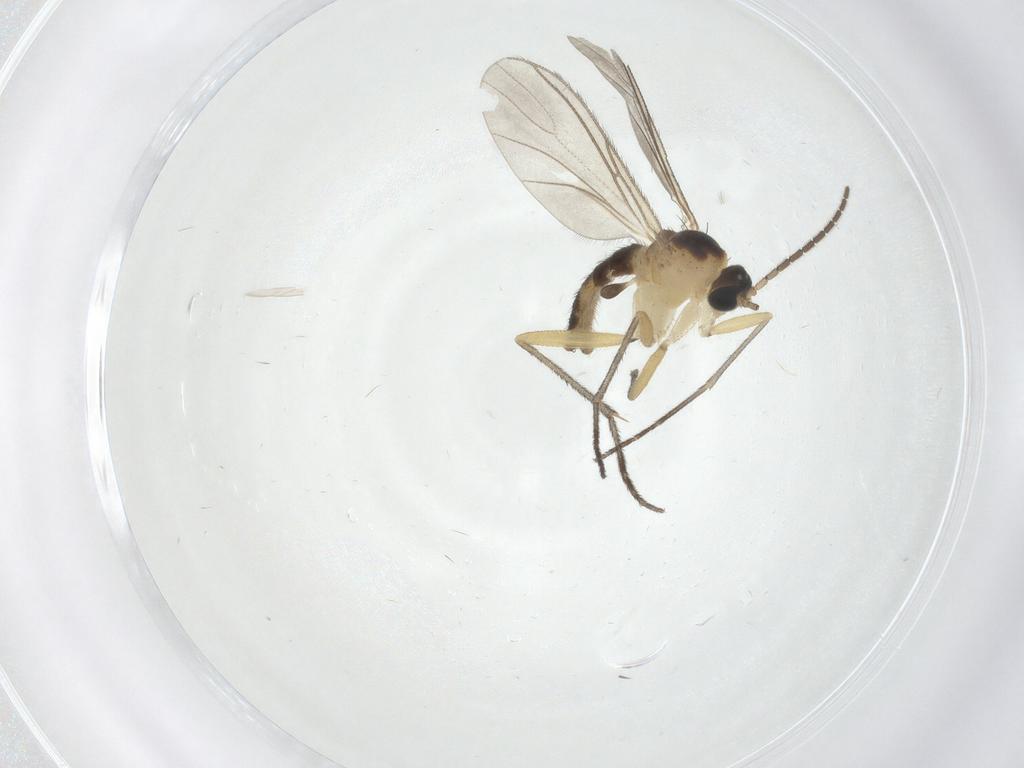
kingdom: Animalia
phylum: Arthropoda
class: Insecta
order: Diptera
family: Sciaridae
